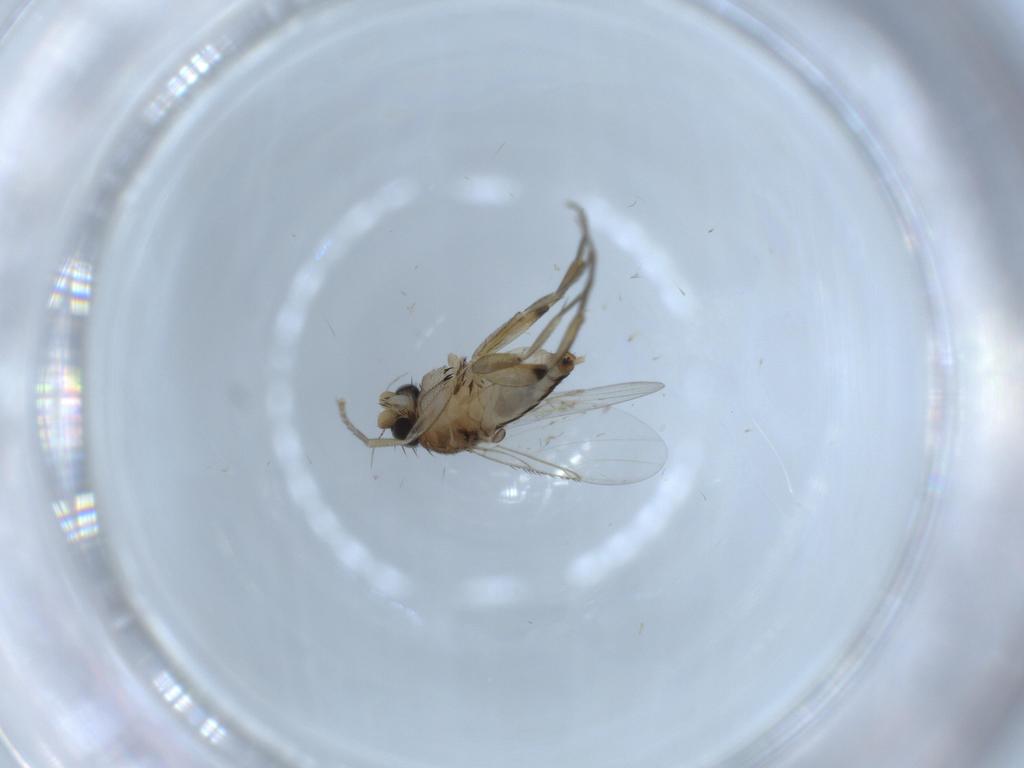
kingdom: Animalia
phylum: Arthropoda
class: Insecta
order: Diptera
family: Phoridae
